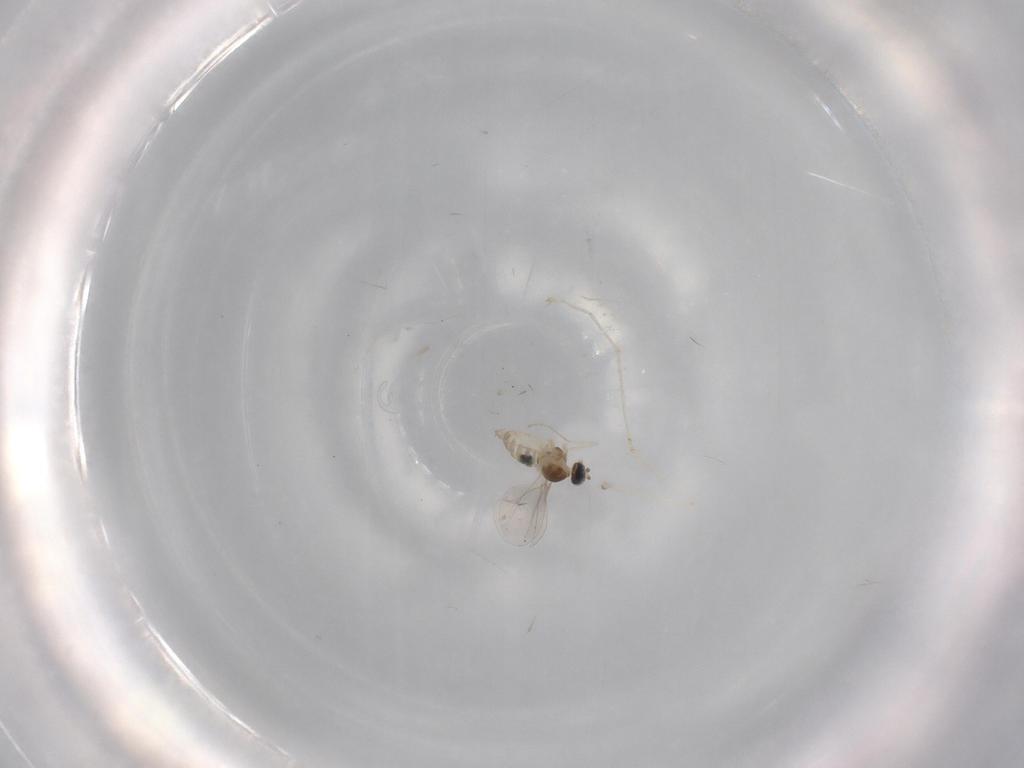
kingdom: Animalia
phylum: Arthropoda
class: Insecta
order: Diptera
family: Cecidomyiidae
